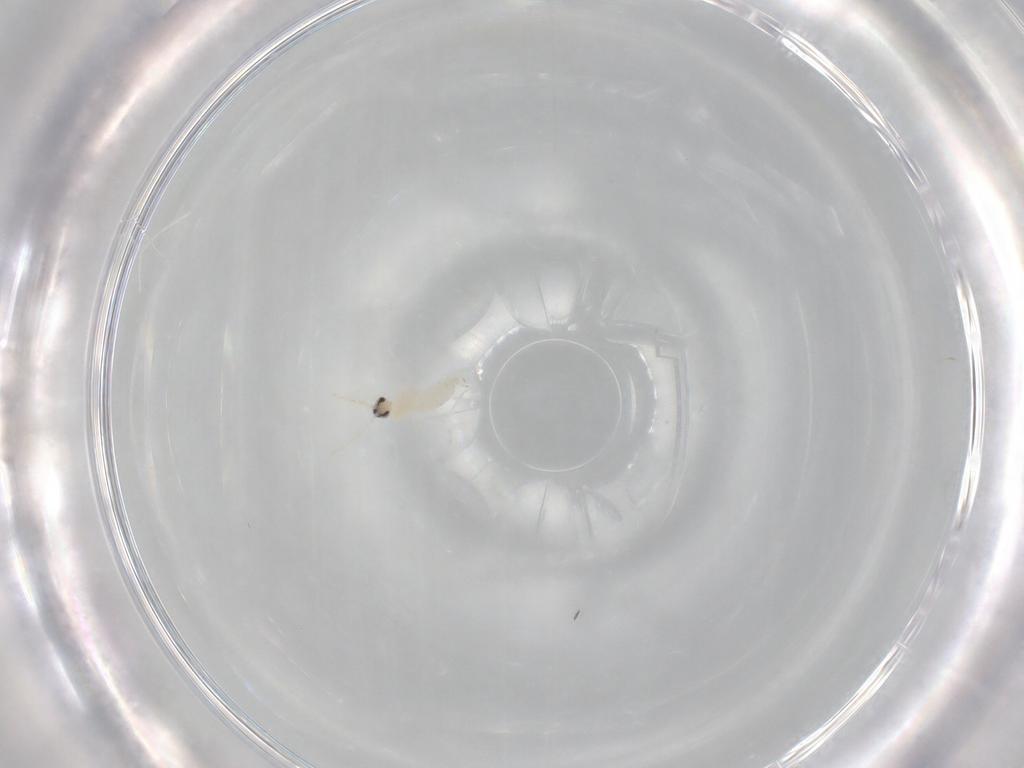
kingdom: Animalia
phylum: Arthropoda
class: Insecta
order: Diptera
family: Cecidomyiidae
